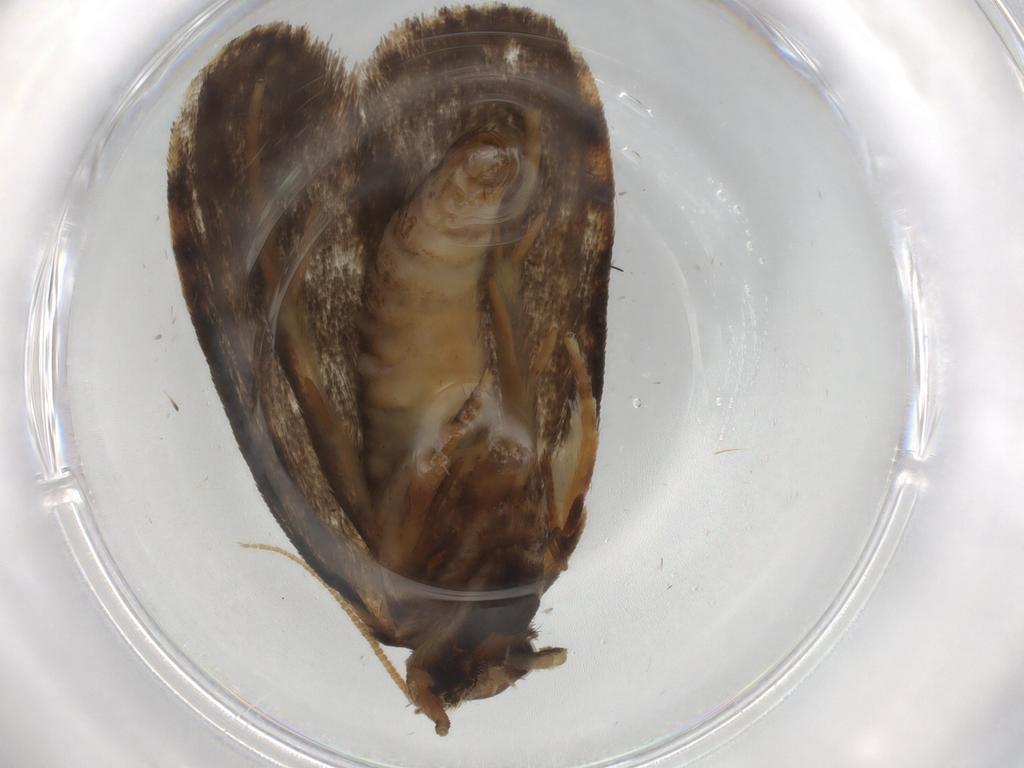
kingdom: Animalia
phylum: Arthropoda
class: Insecta
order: Lepidoptera
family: Tineidae
